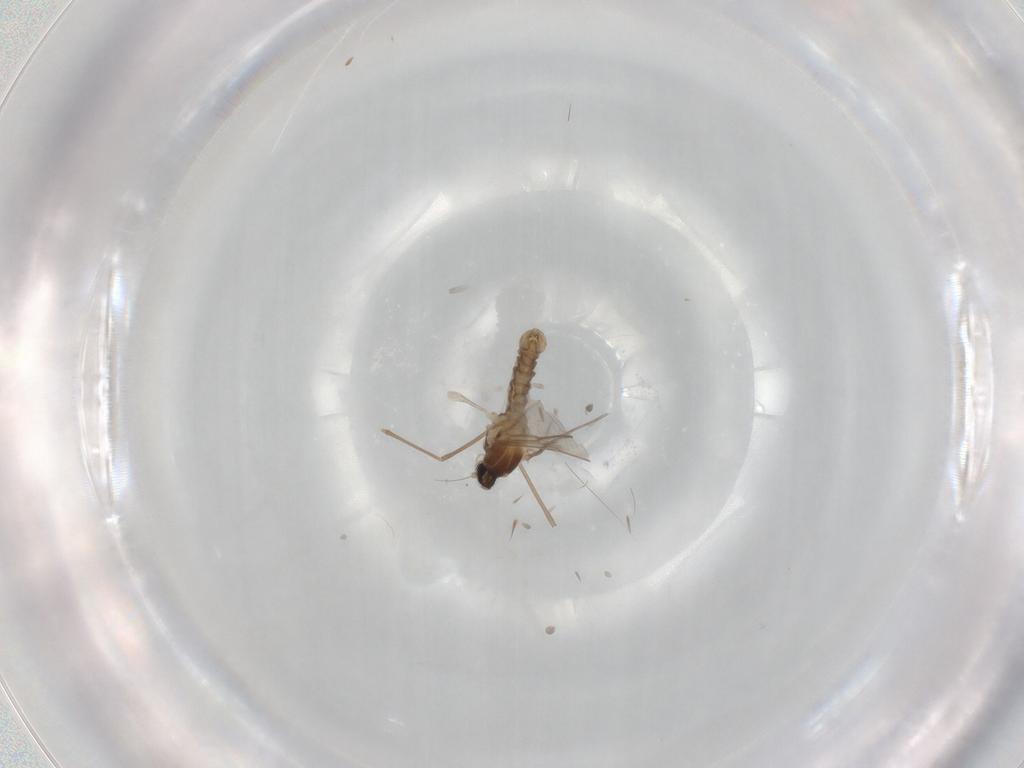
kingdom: Animalia
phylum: Arthropoda
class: Insecta
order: Diptera
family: Cecidomyiidae
